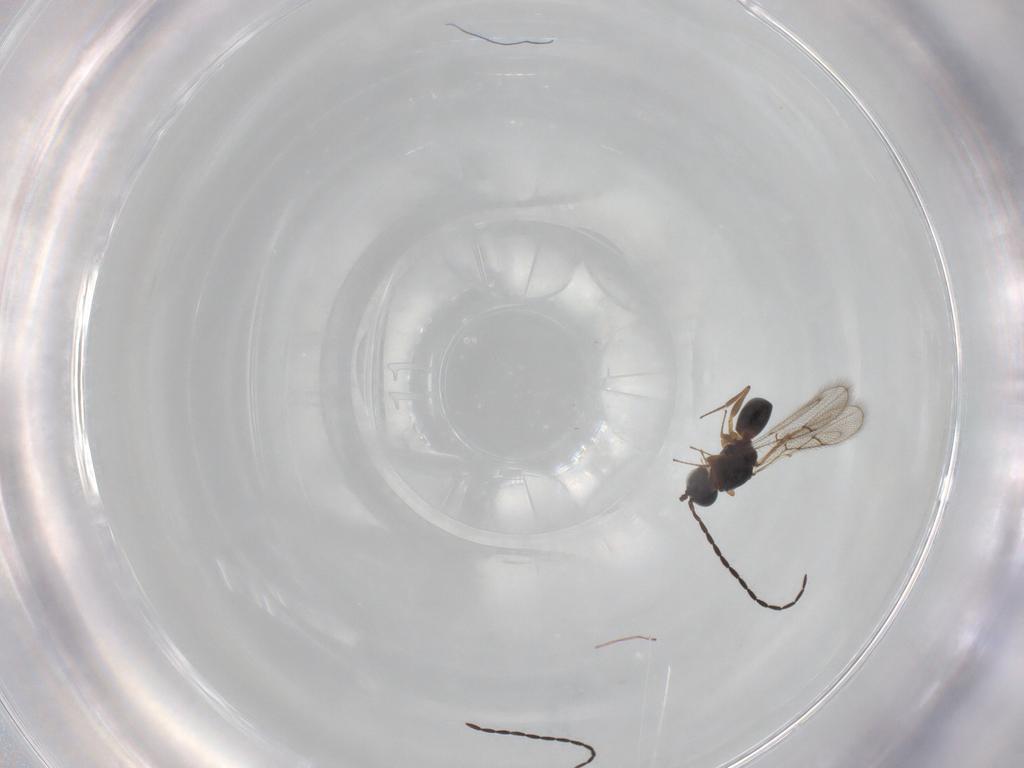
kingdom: Animalia
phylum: Arthropoda
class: Insecta
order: Hymenoptera
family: Figitidae
